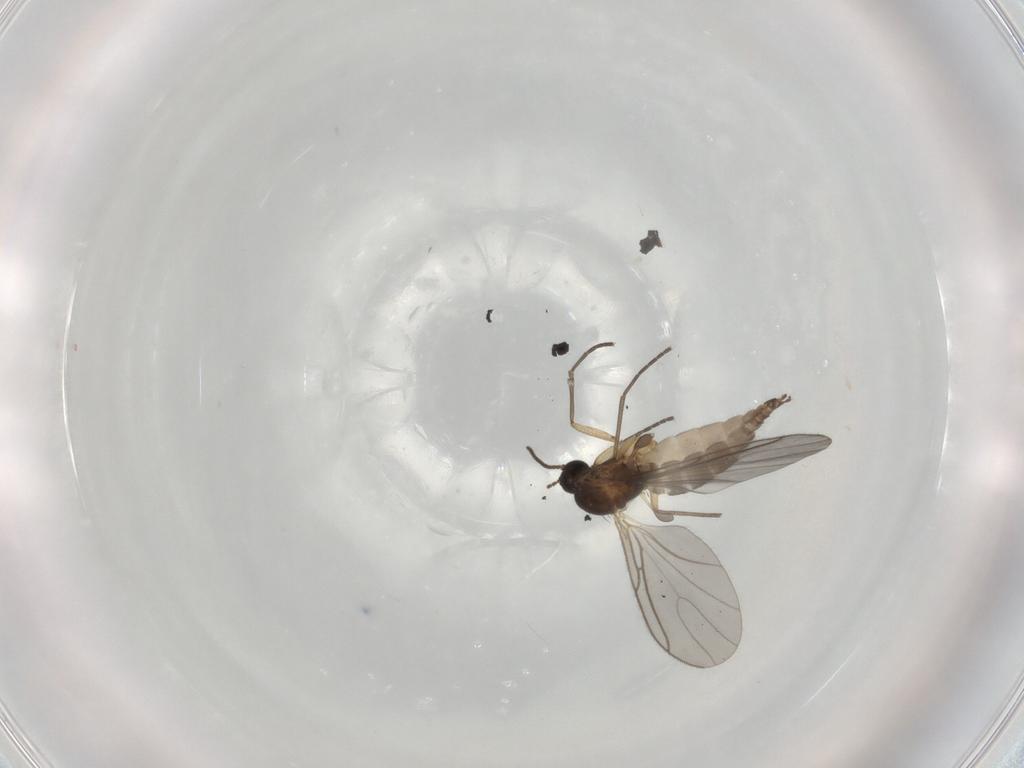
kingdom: Animalia
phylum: Arthropoda
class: Insecta
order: Diptera
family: Sciaridae
